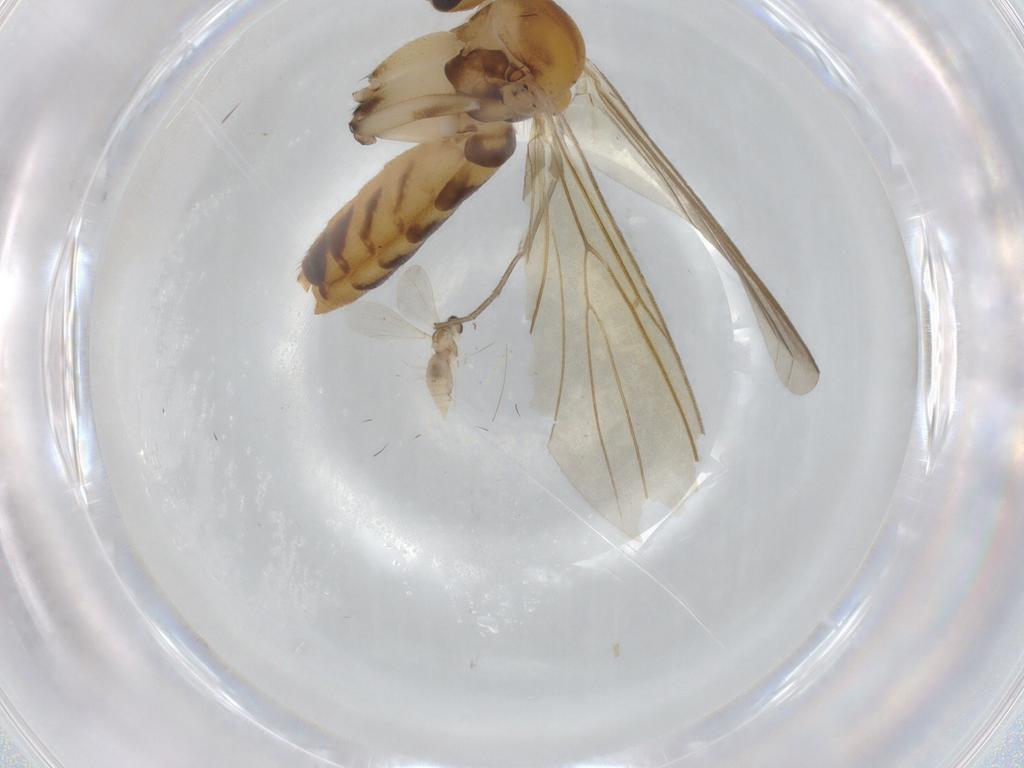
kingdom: Animalia
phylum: Arthropoda
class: Insecta
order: Diptera
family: Mycetophilidae
